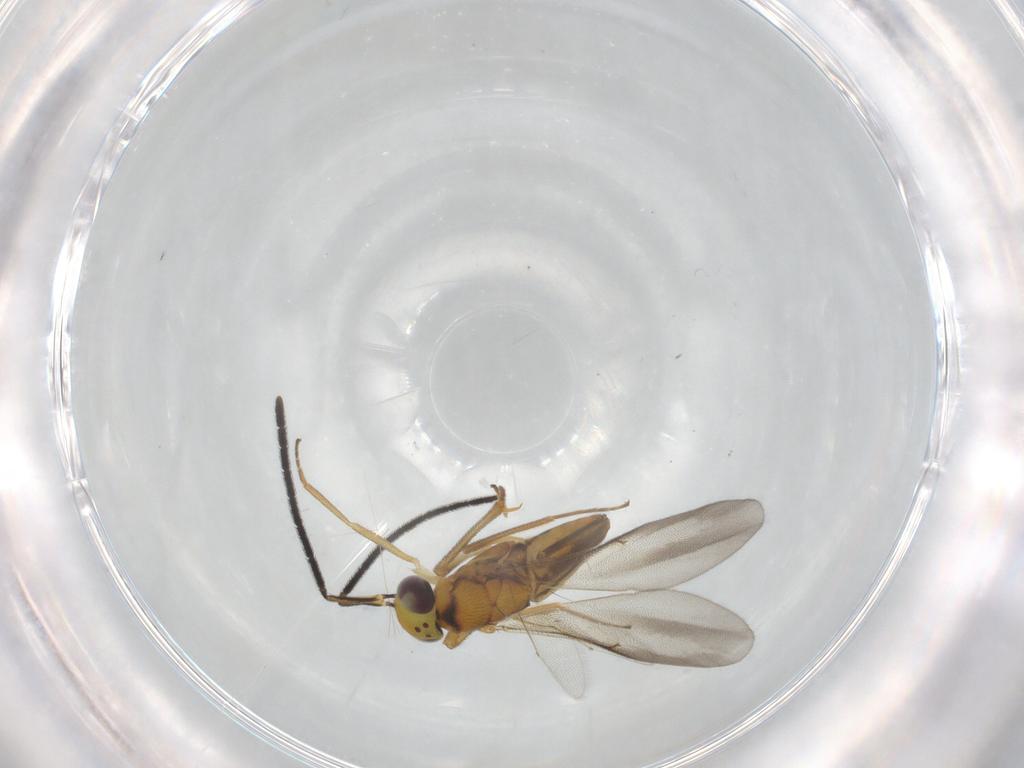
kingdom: Animalia
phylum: Arthropoda
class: Insecta
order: Hymenoptera
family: Encyrtidae
